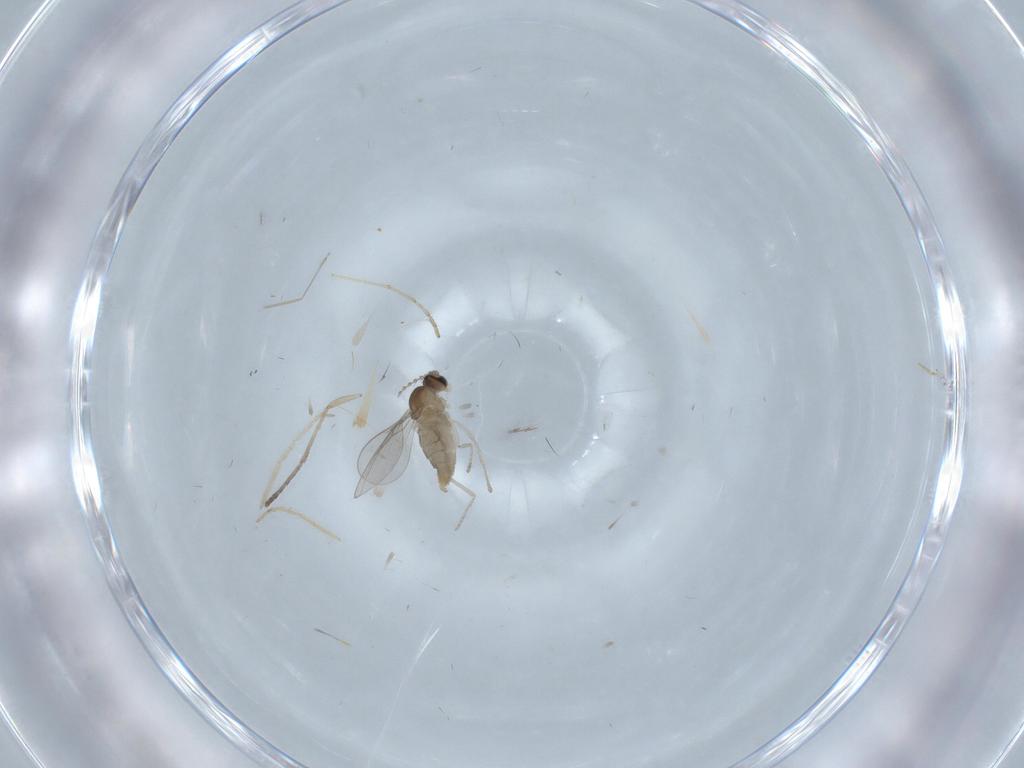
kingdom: Animalia
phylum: Arthropoda
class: Insecta
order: Diptera
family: Cecidomyiidae
